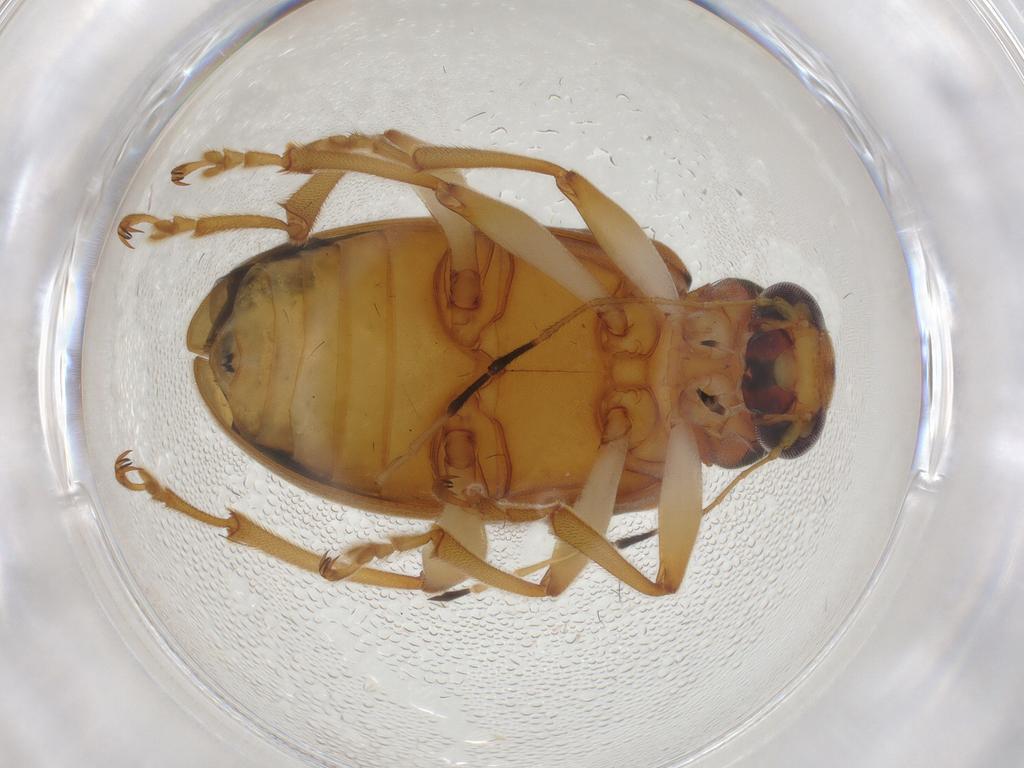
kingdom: Animalia
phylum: Arthropoda
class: Insecta
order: Coleoptera
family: Chrysomelidae
